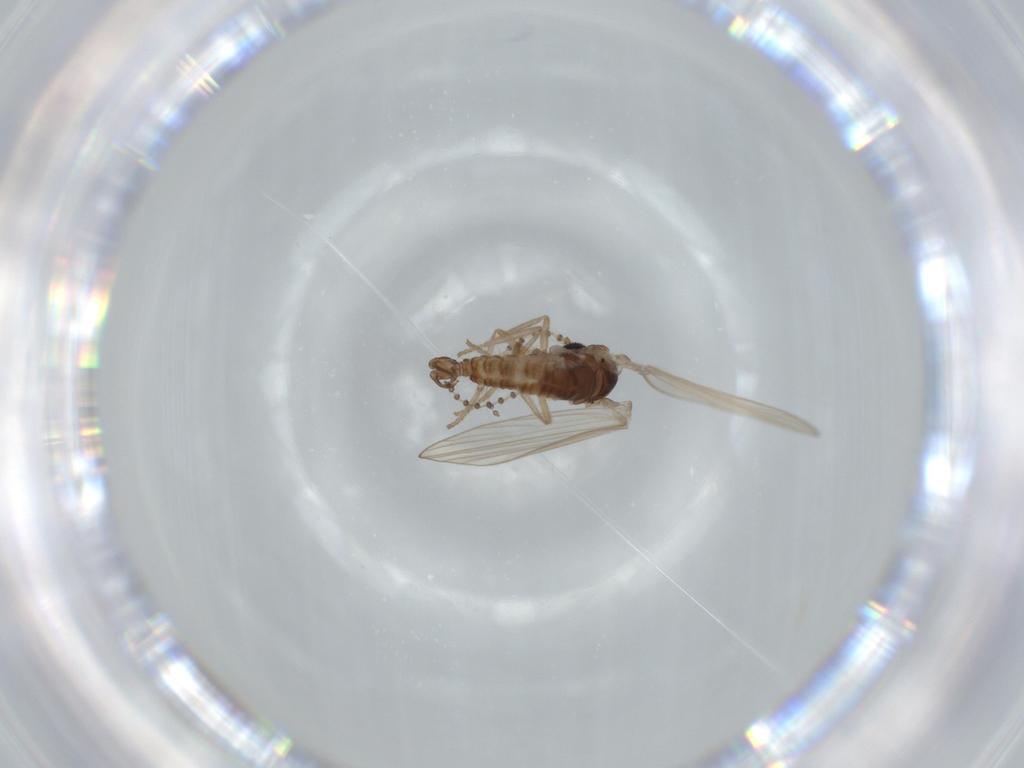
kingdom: Animalia
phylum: Arthropoda
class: Insecta
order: Diptera
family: Psychodidae
